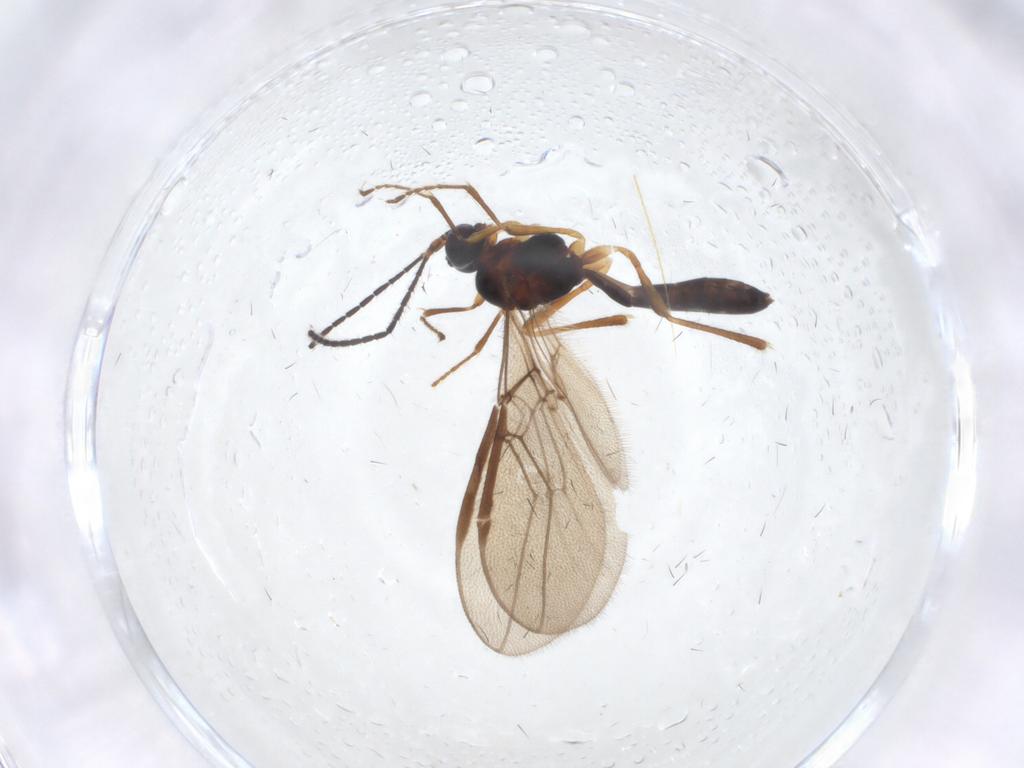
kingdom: Animalia
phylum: Arthropoda
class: Insecta
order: Hymenoptera
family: Braconidae
